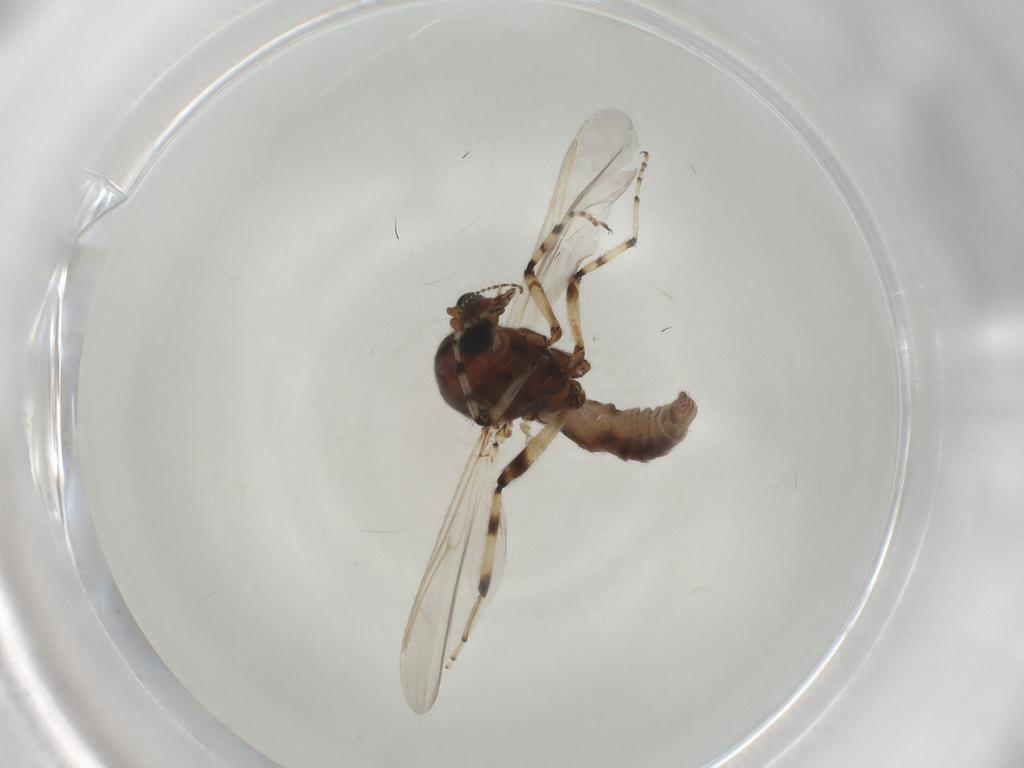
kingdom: Animalia
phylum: Arthropoda
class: Insecta
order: Diptera
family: Ceratopogonidae
